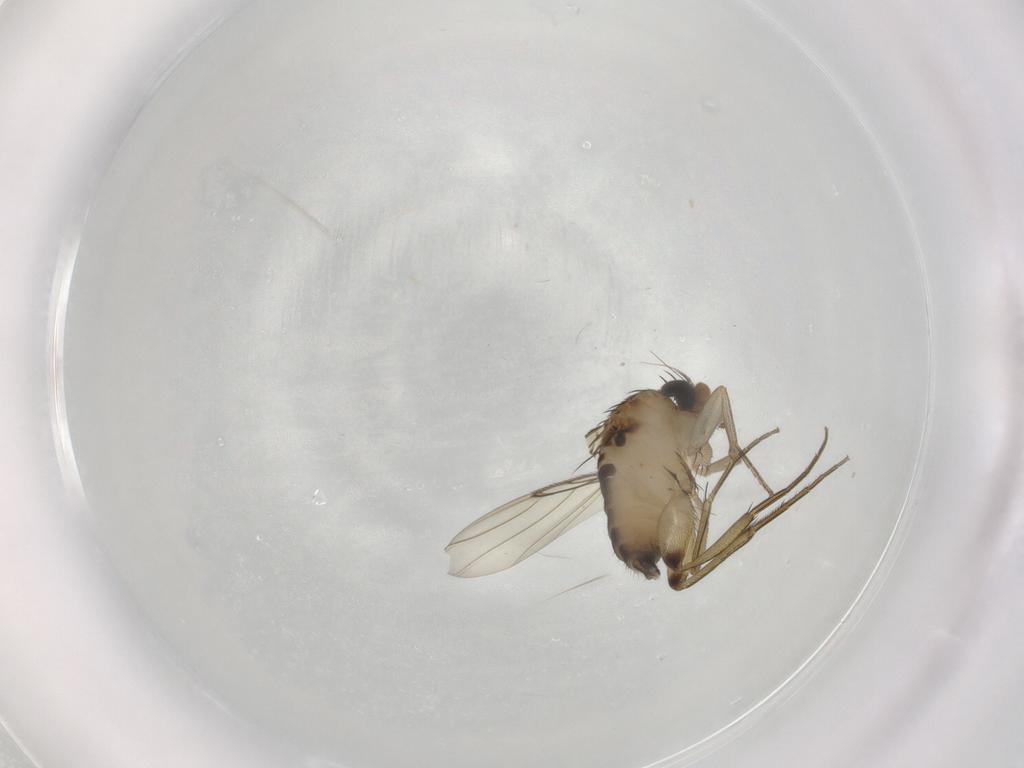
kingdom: Animalia
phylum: Arthropoda
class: Insecta
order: Diptera
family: Phoridae
